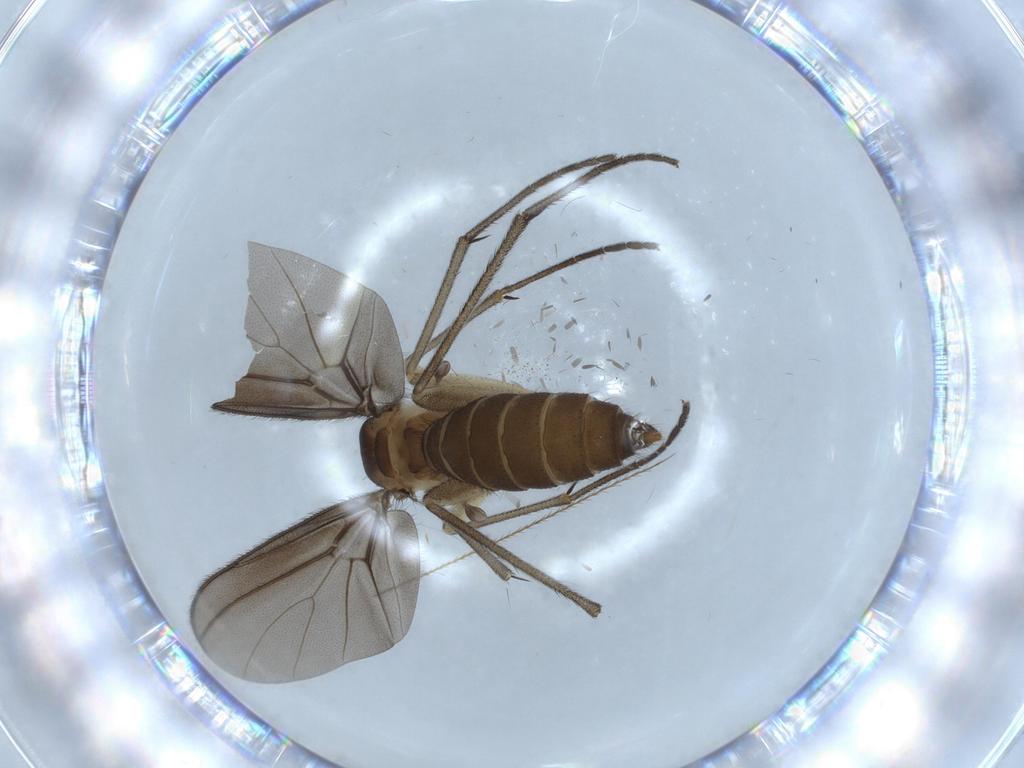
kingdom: Animalia
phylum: Arthropoda
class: Insecta
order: Diptera
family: Diadocidiidae
